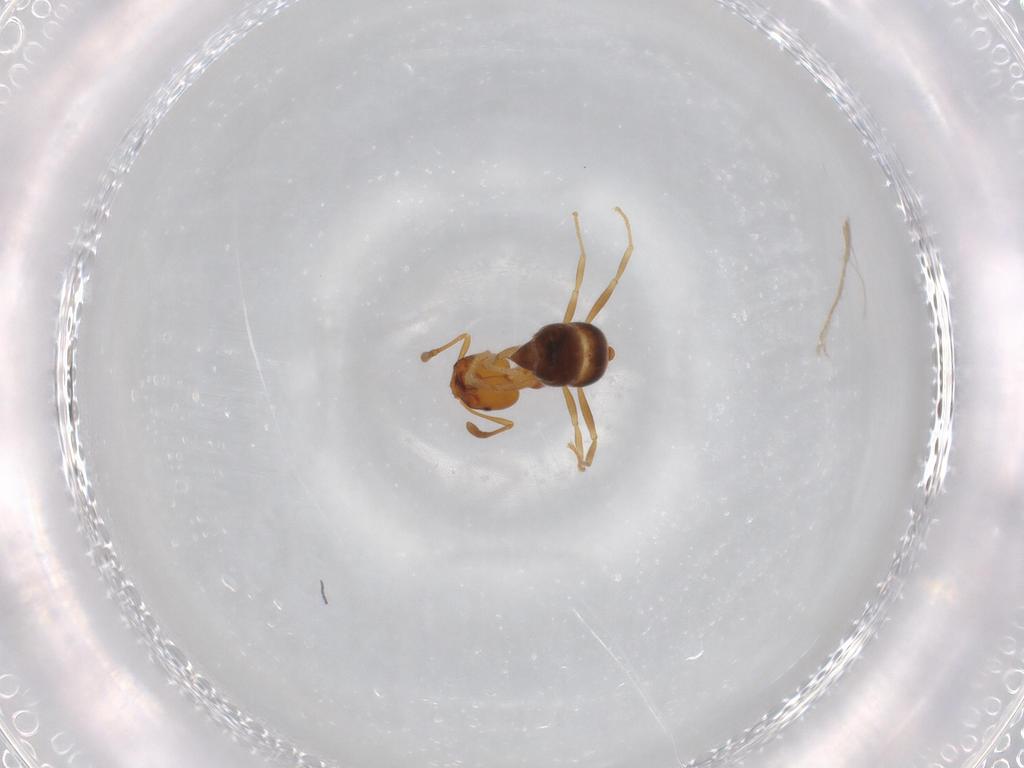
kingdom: Animalia
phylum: Arthropoda
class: Insecta
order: Hymenoptera
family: Formicidae
